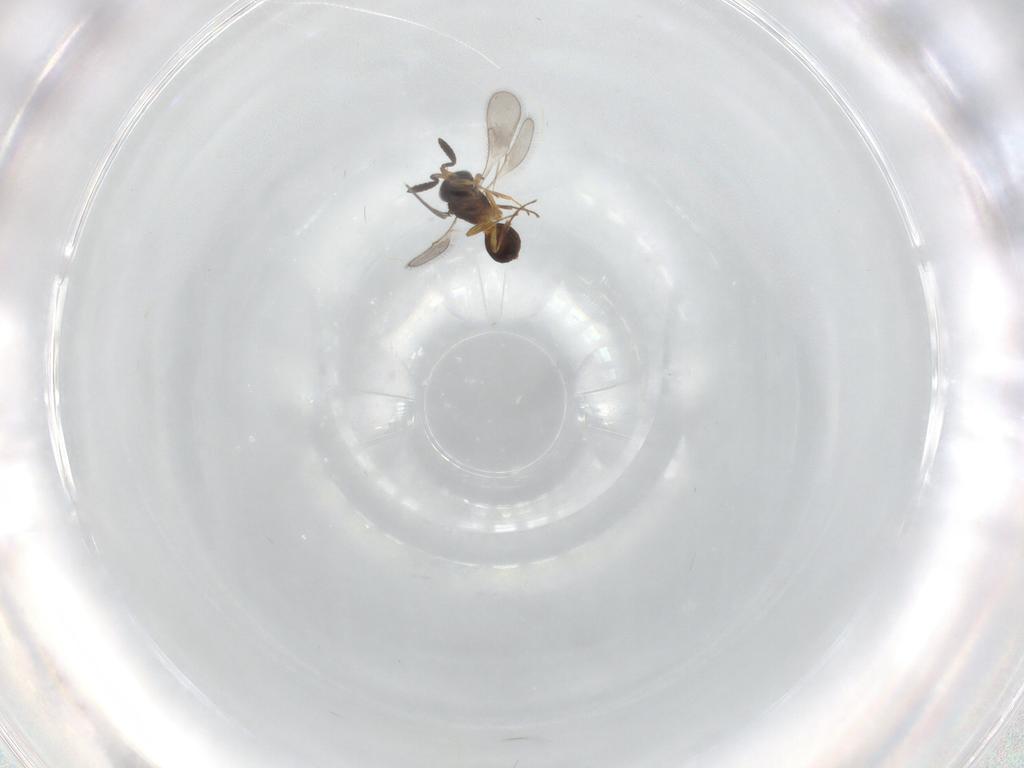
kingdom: Animalia
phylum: Arthropoda
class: Insecta
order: Hymenoptera
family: Scelionidae
